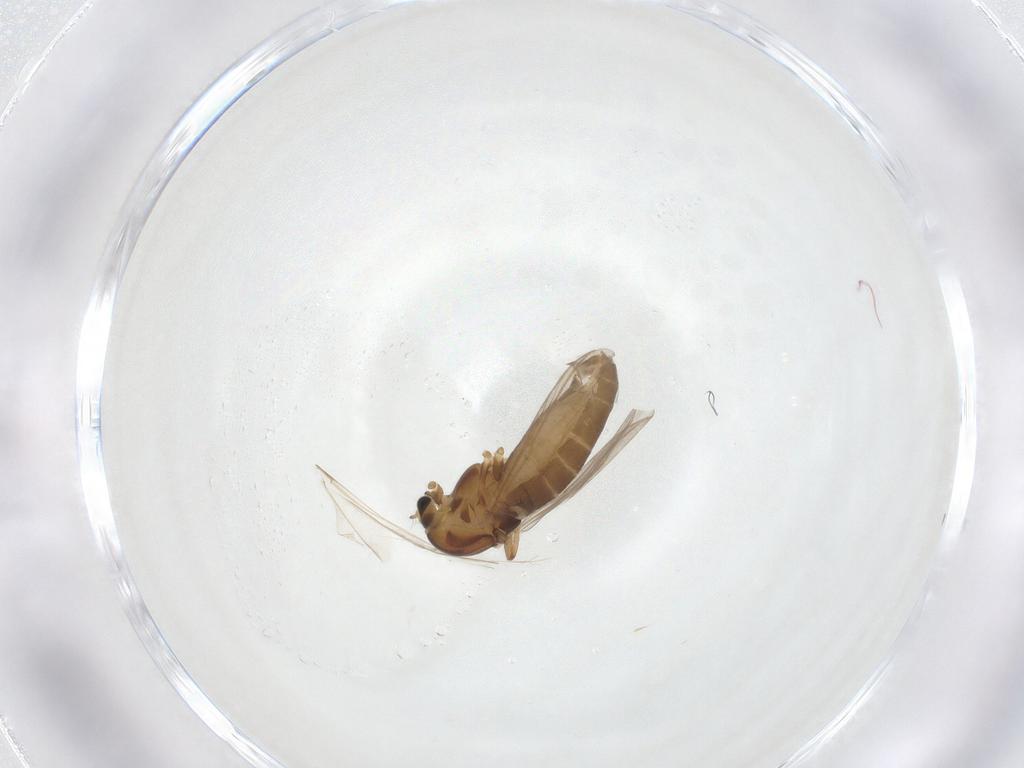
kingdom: Animalia
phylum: Arthropoda
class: Insecta
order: Diptera
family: Chironomidae
